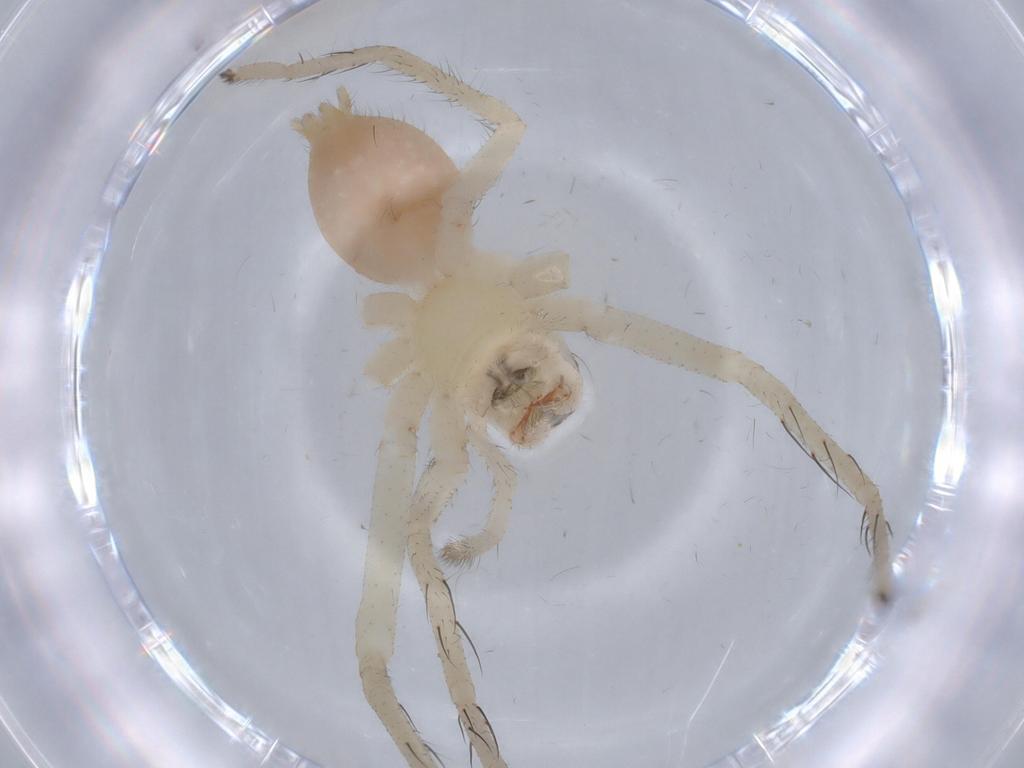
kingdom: Animalia
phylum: Arthropoda
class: Arachnida
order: Araneae
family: Sparassidae
